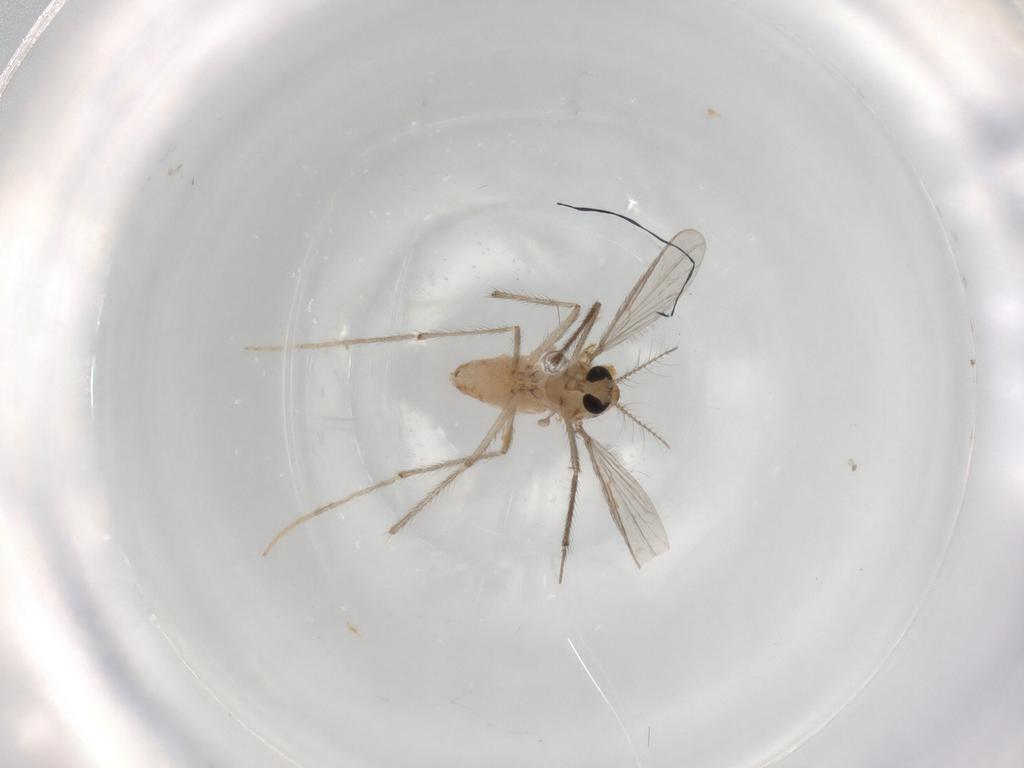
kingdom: Animalia
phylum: Arthropoda
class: Insecta
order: Diptera
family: Chironomidae
